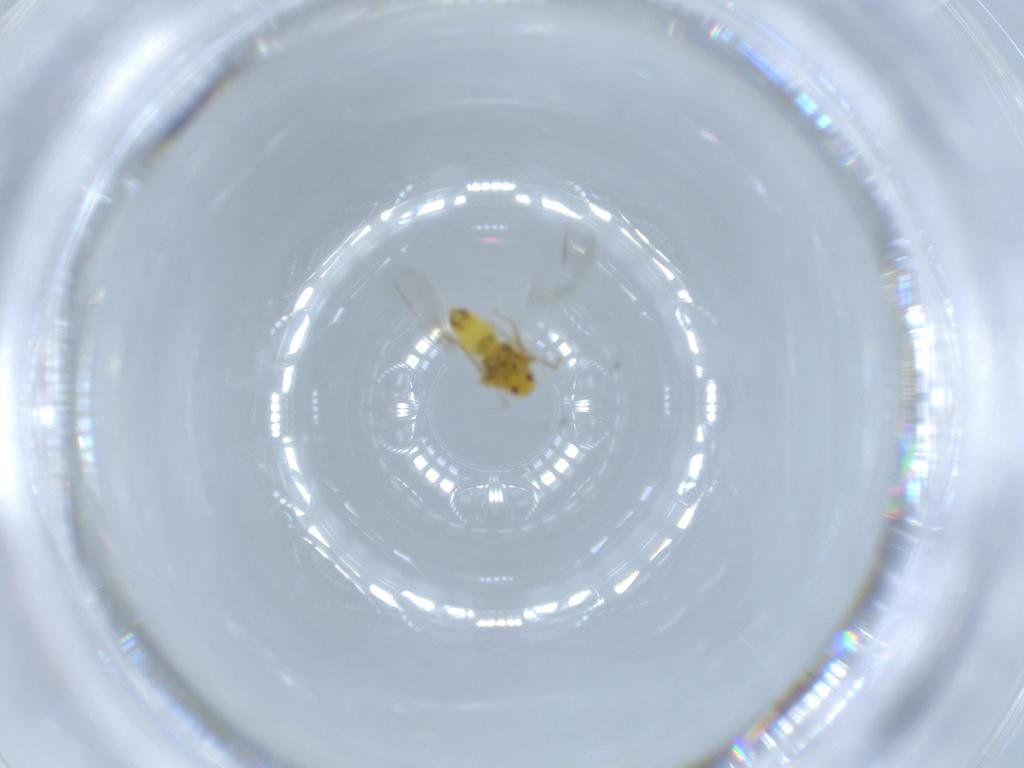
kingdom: Animalia
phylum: Arthropoda
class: Insecta
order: Hemiptera
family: Aleyrodidae
